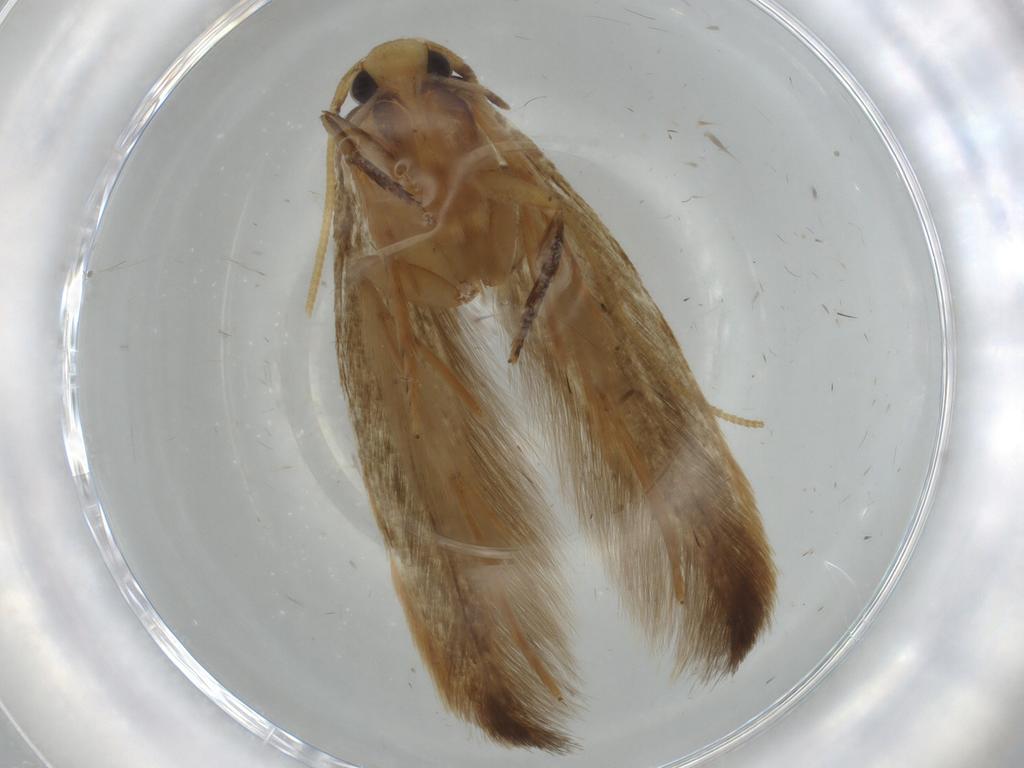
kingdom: Animalia
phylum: Arthropoda
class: Insecta
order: Lepidoptera
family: Tineidae
